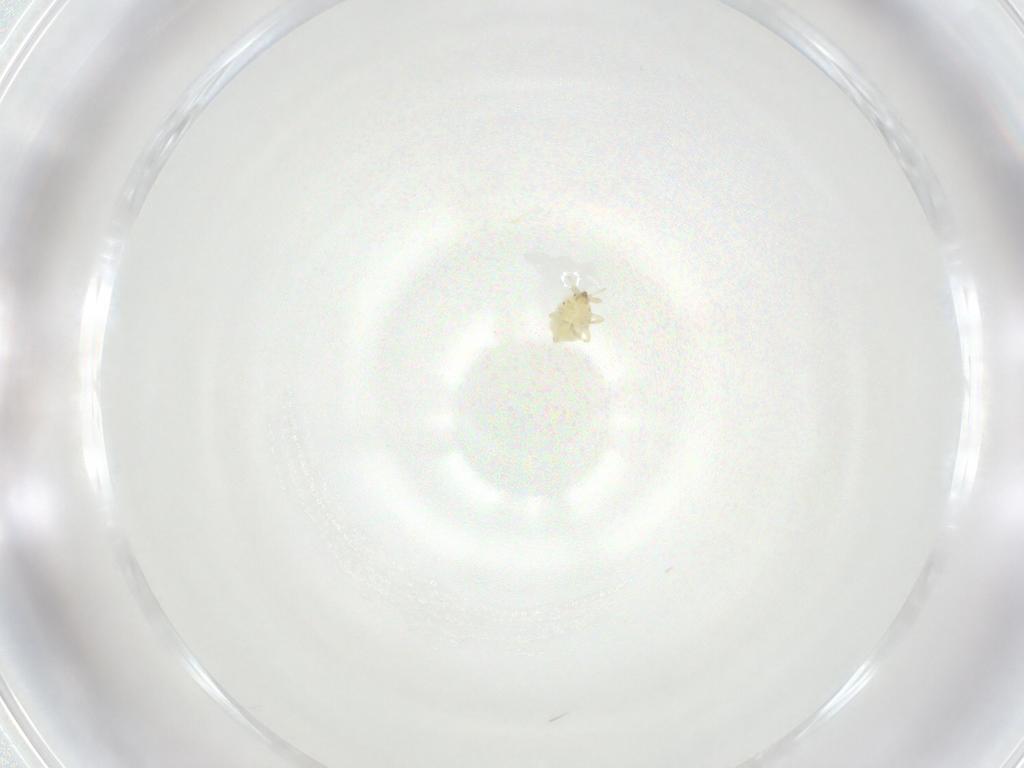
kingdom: Animalia
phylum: Arthropoda
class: Insecta
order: Neuroptera
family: Coniopterygidae
